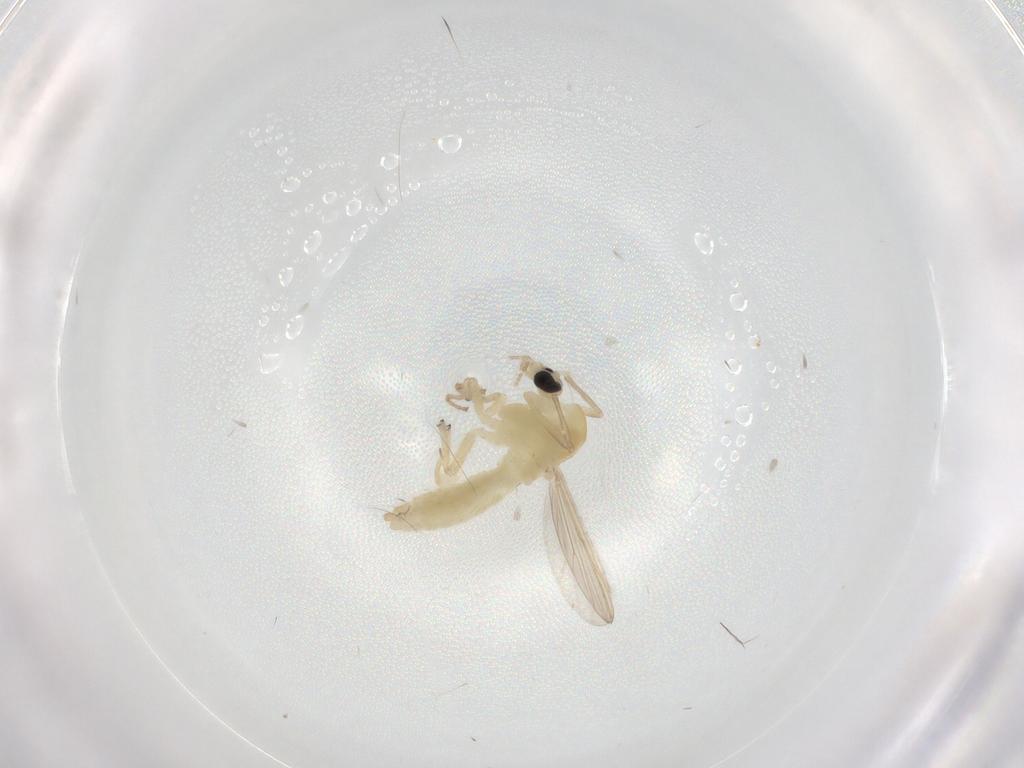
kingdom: Animalia
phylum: Arthropoda
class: Insecta
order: Diptera
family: Chironomidae
